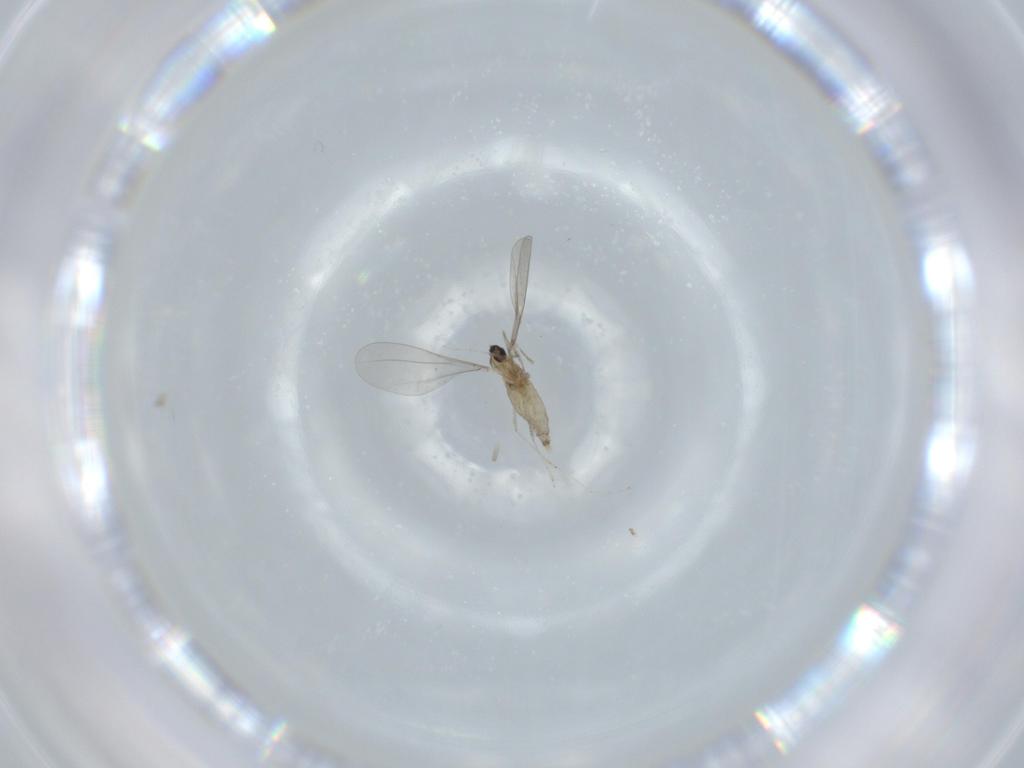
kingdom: Animalia
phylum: Arthropoda
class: Insecta
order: Diptera
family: Cecidomyiidae
